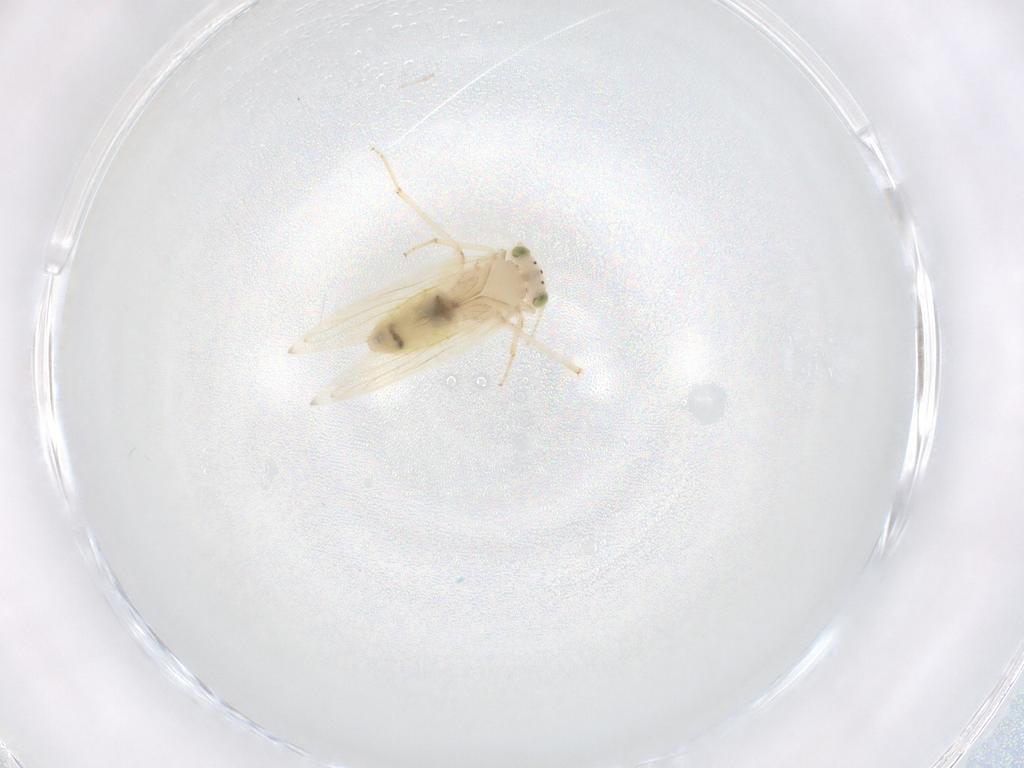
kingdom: Animalia
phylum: Arthropoda
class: Insecta
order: Psocodea
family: Lepidopsocidae
